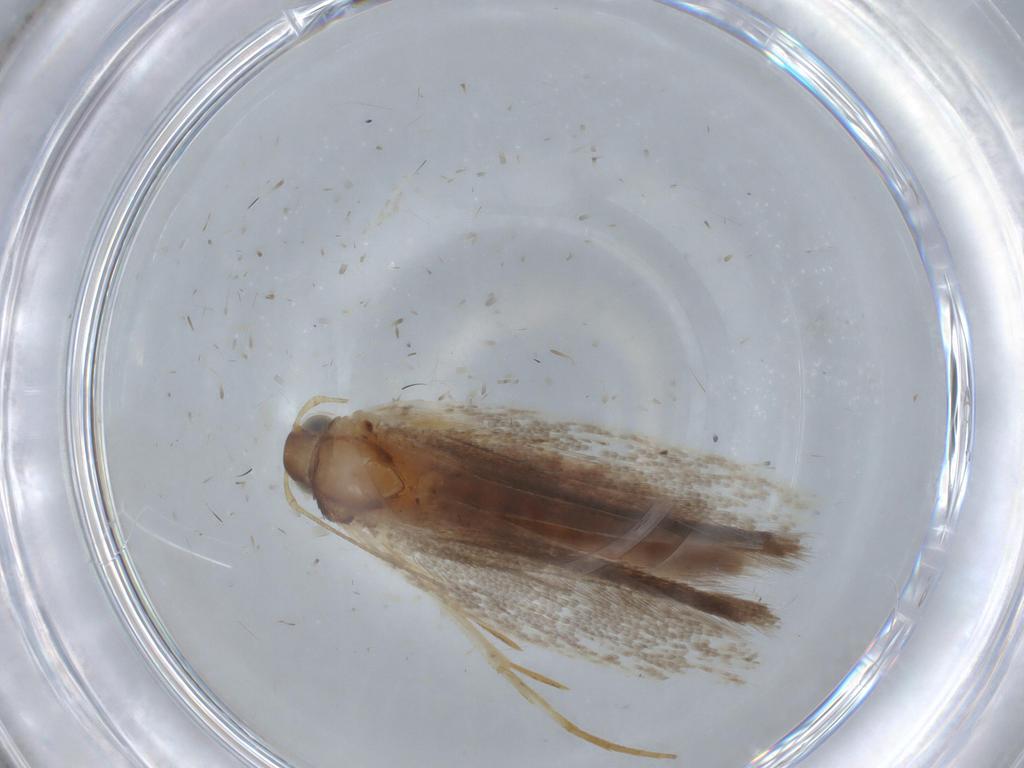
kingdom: Animalia
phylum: Arthropoda
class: Insecta
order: Lepidoptera
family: Gelechiidae
